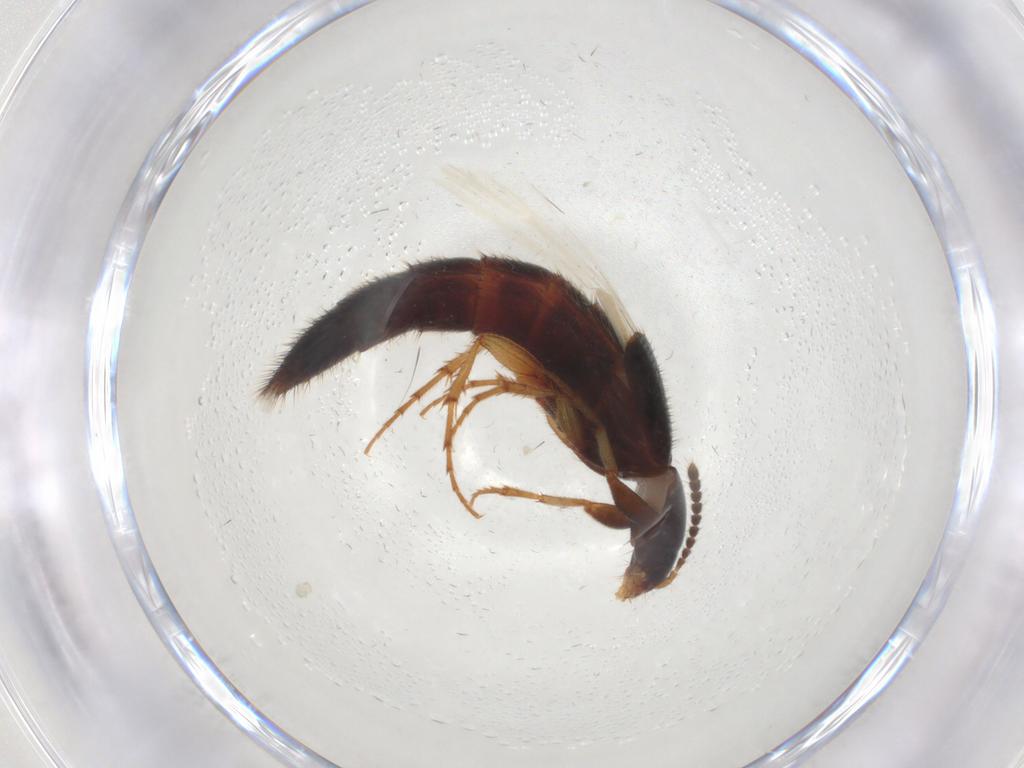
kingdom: Animalia
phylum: Arthropoda
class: Insecta
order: Coleoptera
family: Staphylinidae
